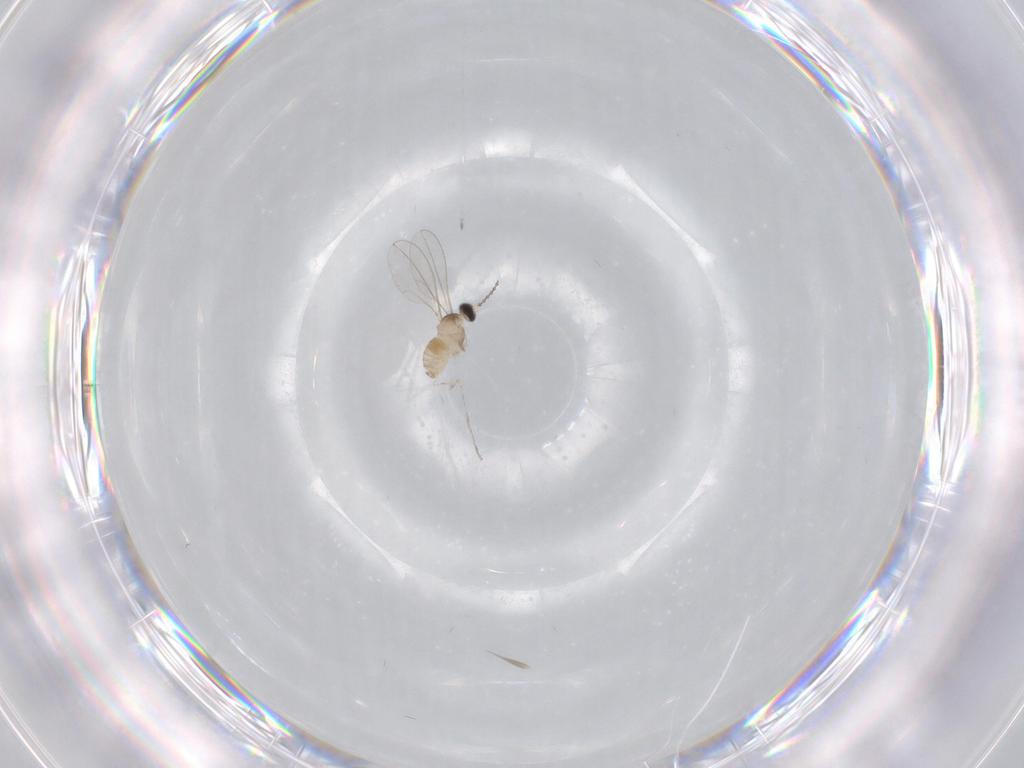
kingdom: Animalia
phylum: Arthropoda
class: Insecta
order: Diptera
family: Cecidomyiidae
